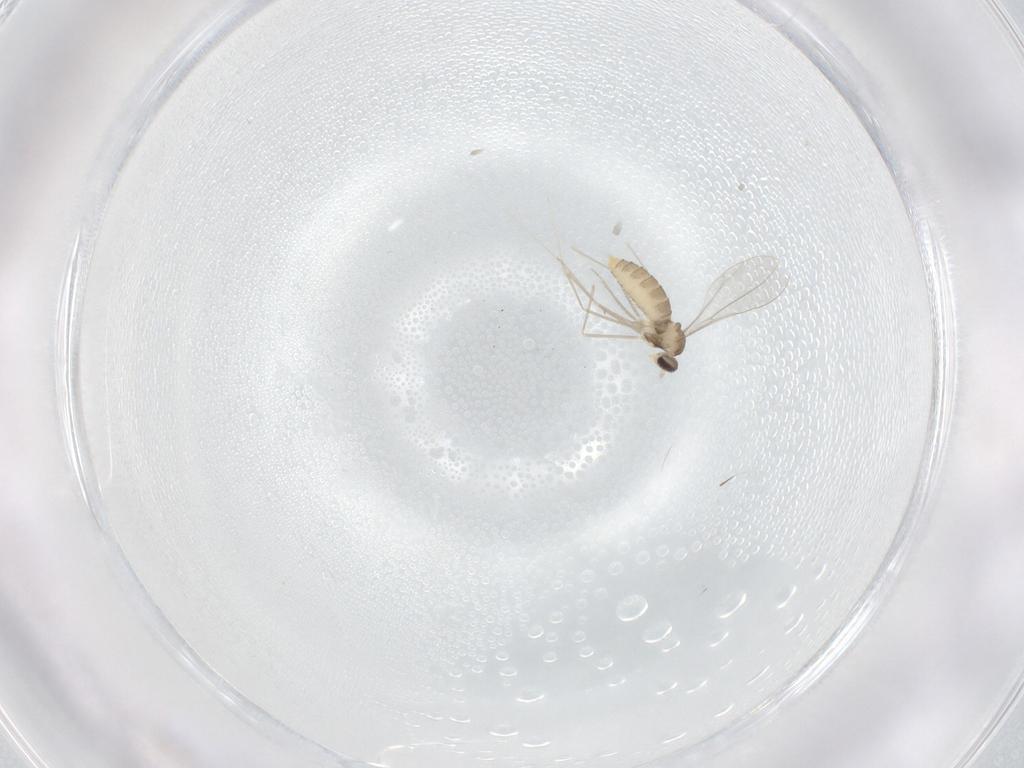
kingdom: Animalia
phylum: Arthropoda
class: Insecta
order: Diptera
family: Cecidomyiidae
